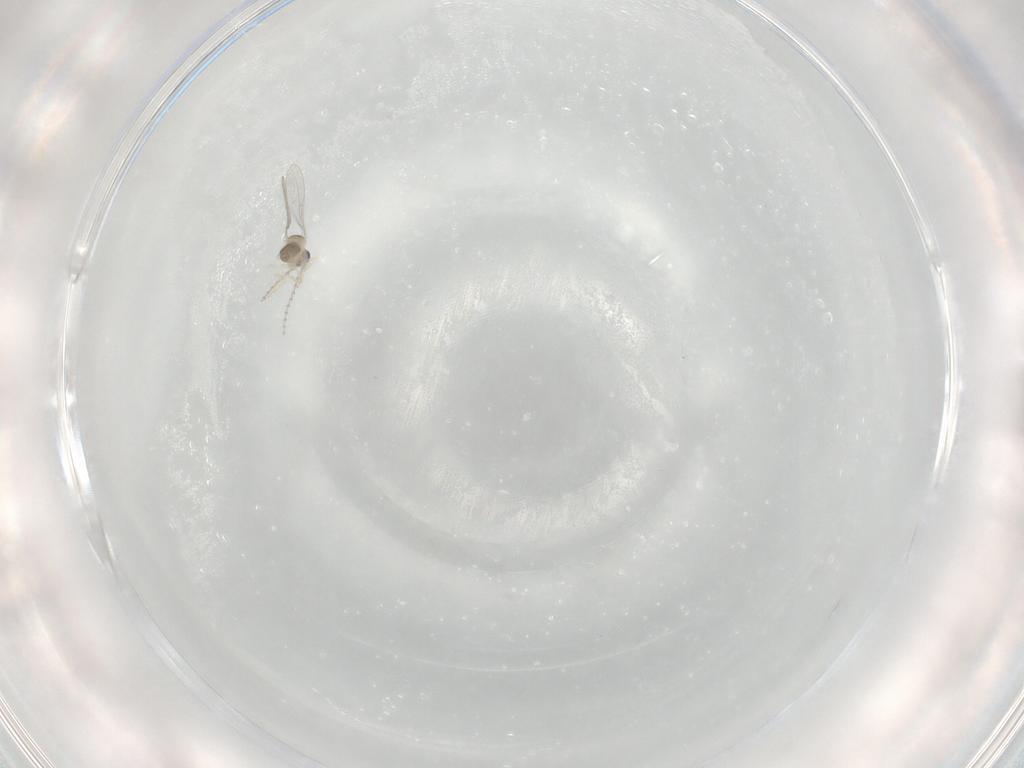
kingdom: Animalia
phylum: Arthropoda
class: Insecta
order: Diptera
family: Cecidomyiidae
